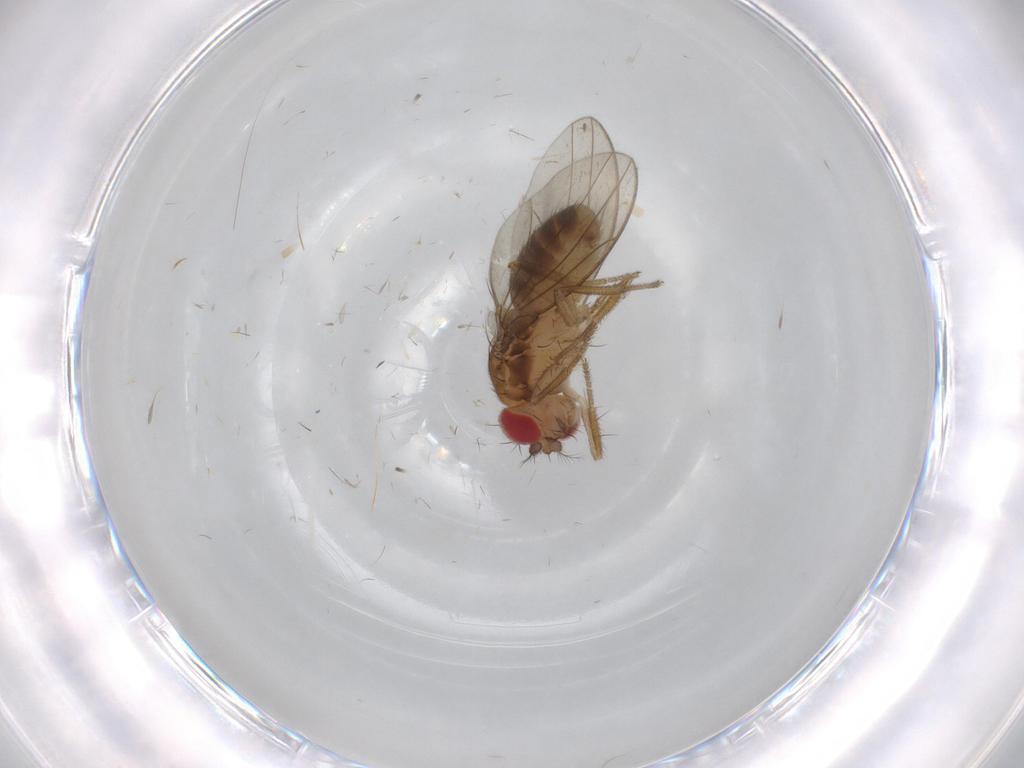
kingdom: Animalia
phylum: Arthropoda
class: Insecta
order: Diptera
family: Drosophilidae
